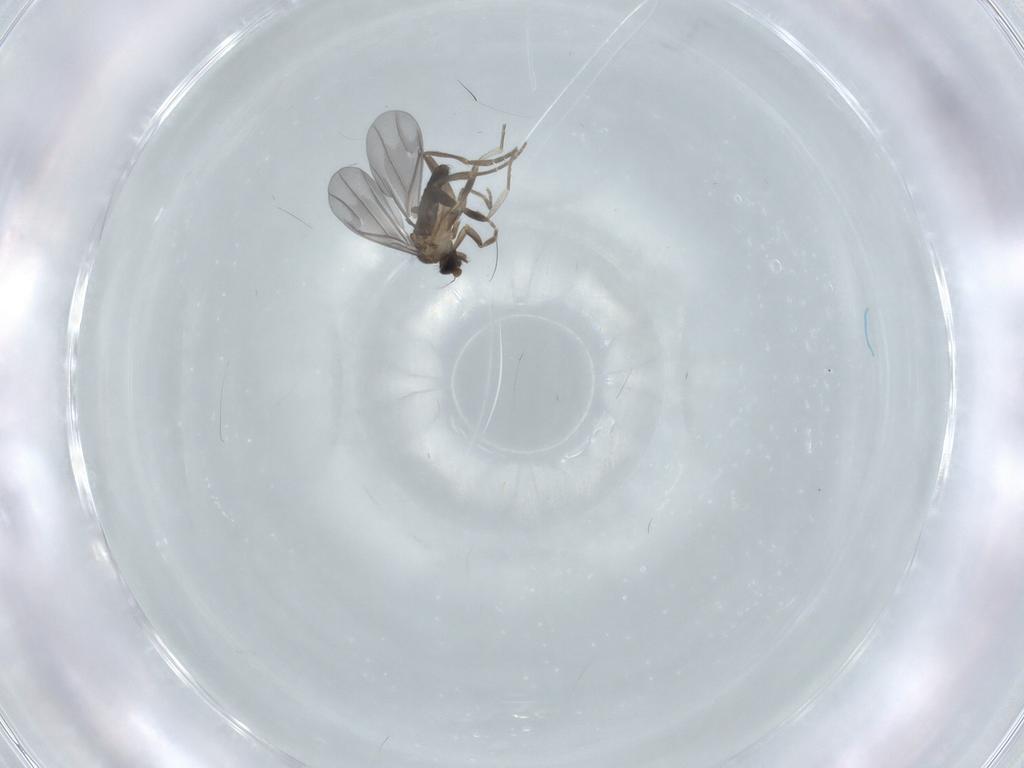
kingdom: Animalia
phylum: Arthropoda
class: Insecta
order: Diptera
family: Chironomidae
